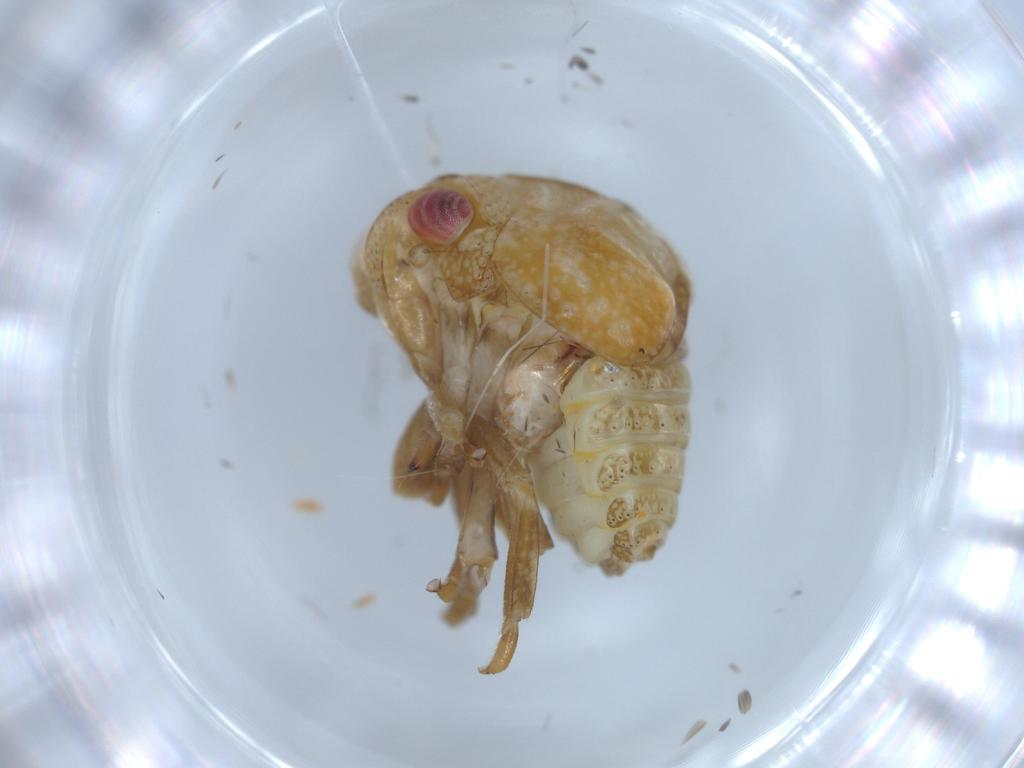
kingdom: Animalia
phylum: Arthropoda
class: Insecta
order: Hemiptera
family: Acanaloniidae
